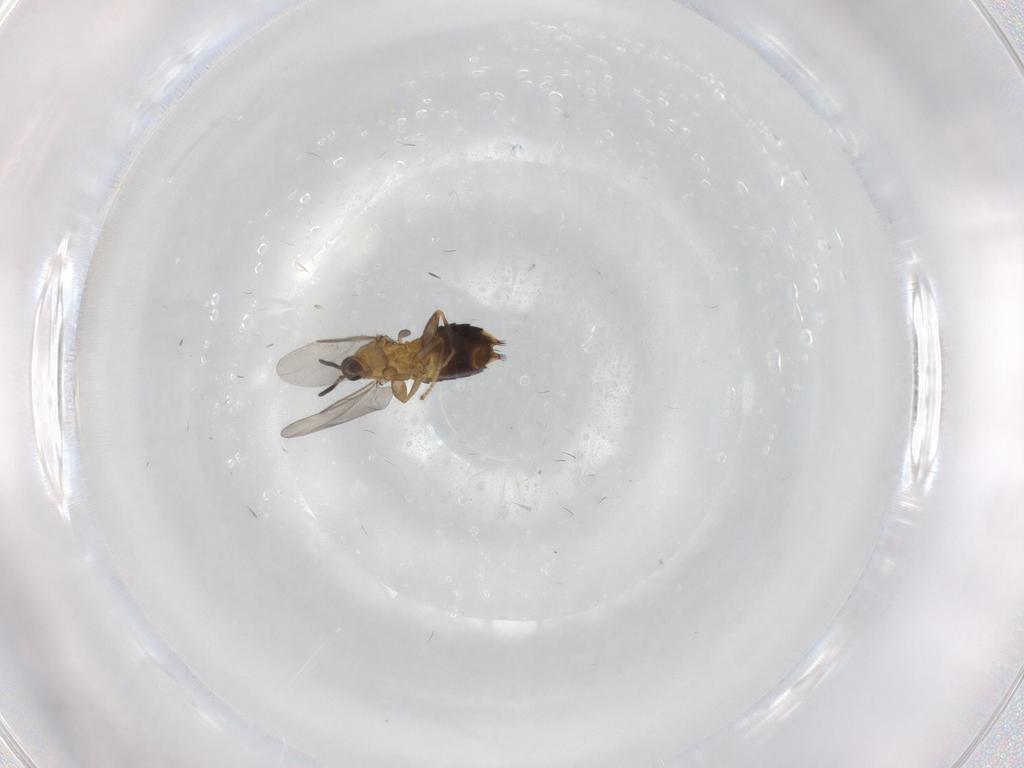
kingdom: Animalia
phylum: Arthropoda
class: Insecta
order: Diptera
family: Scatopsidae
